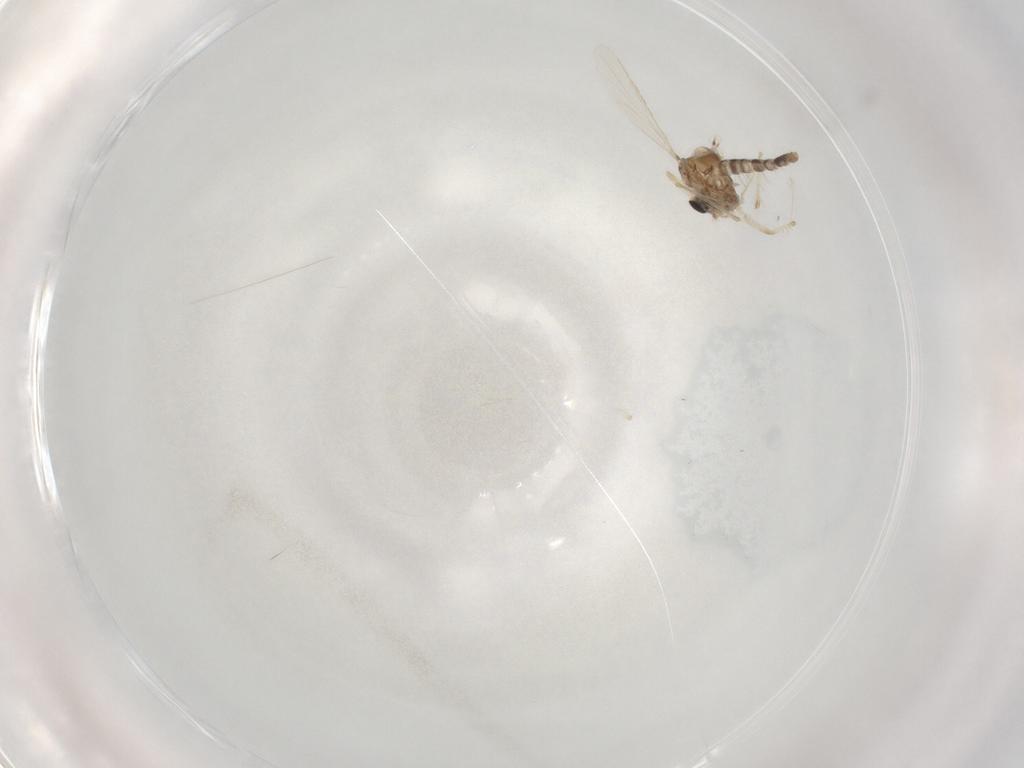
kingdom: Animalia
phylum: Arthropoda
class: Insecta
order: Diptera
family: Chironomidae
